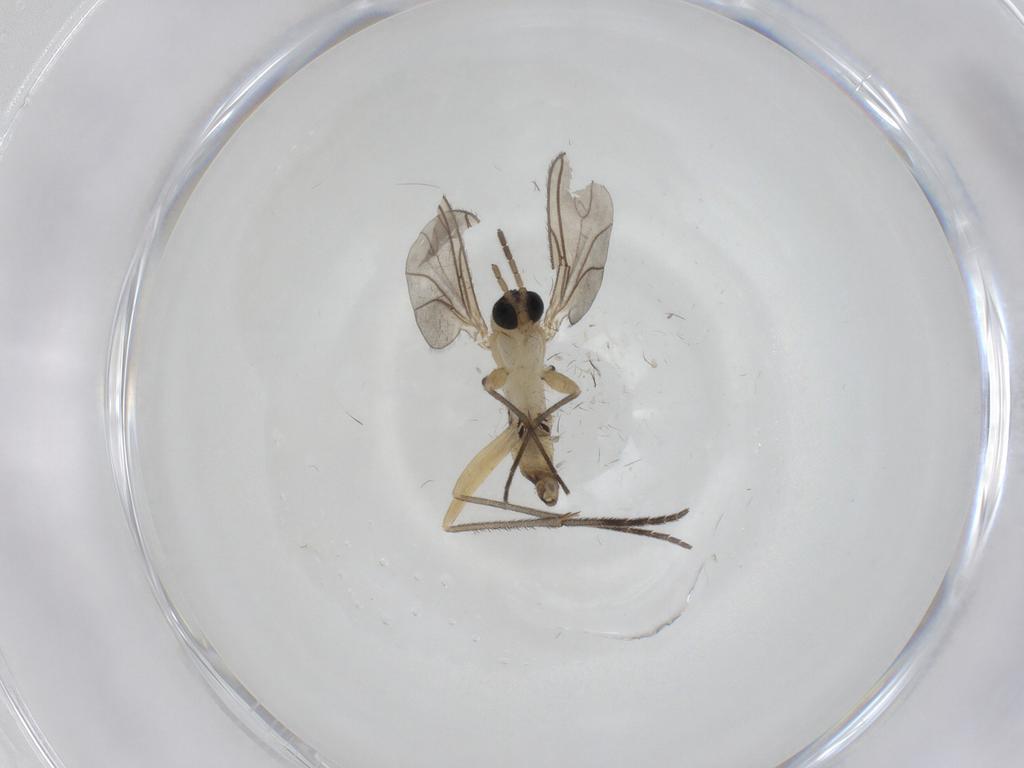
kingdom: Animalia
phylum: Arthropoda
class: Insecta
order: Diptera
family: Sciaridae
